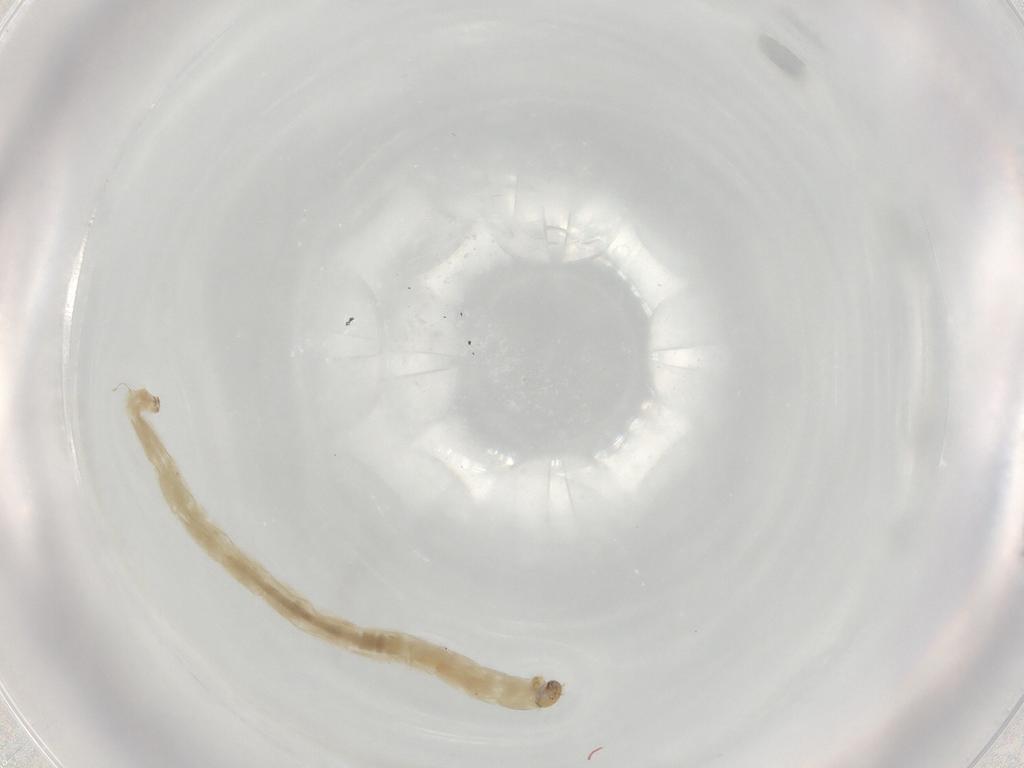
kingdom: Animalia
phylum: Arthropoda
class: Insecta
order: Diptera
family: Chironomidae
